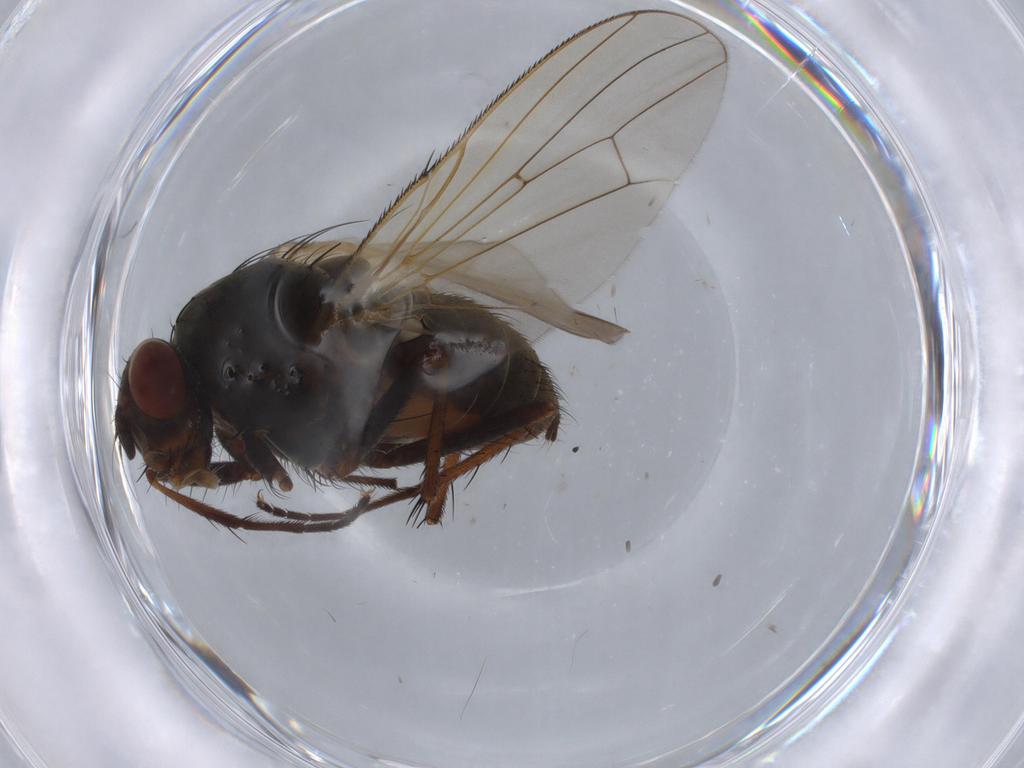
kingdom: Animalia
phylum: Arthropoda
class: Insecta
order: Diptera
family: Anthomyiidae
